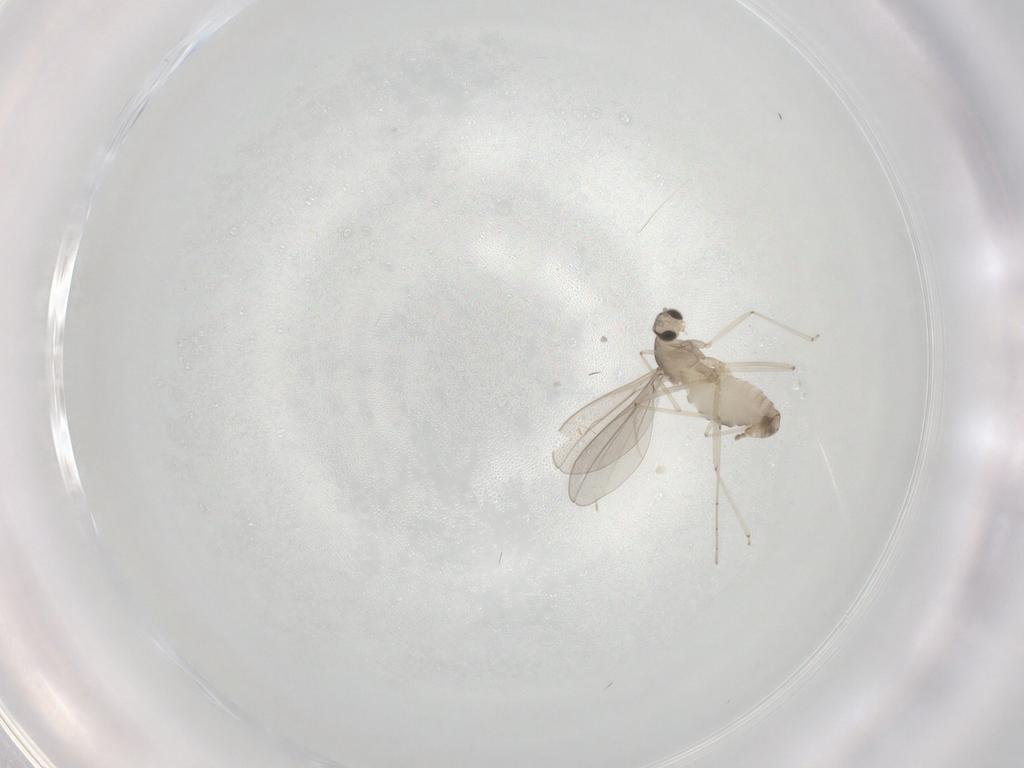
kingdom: Animalia
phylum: Arthropoda
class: Insecta
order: Diptera
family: Cecidomyiidae
